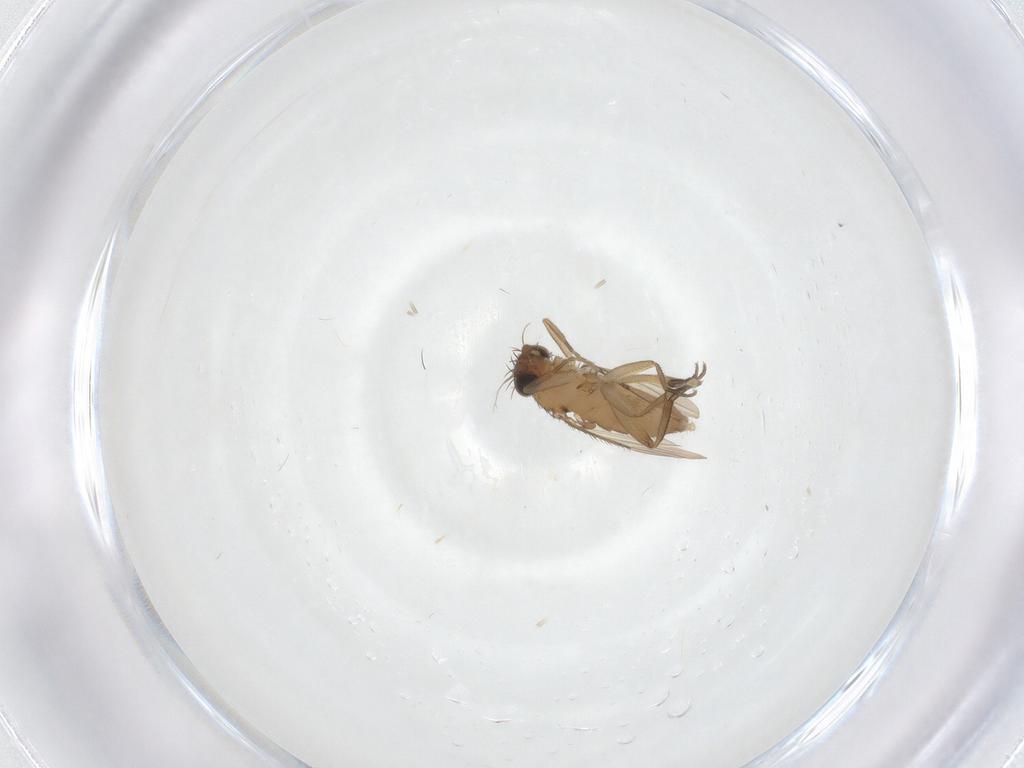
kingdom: Animalia
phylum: Arthropoda
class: Insecta
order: Diptera
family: Phoridae
